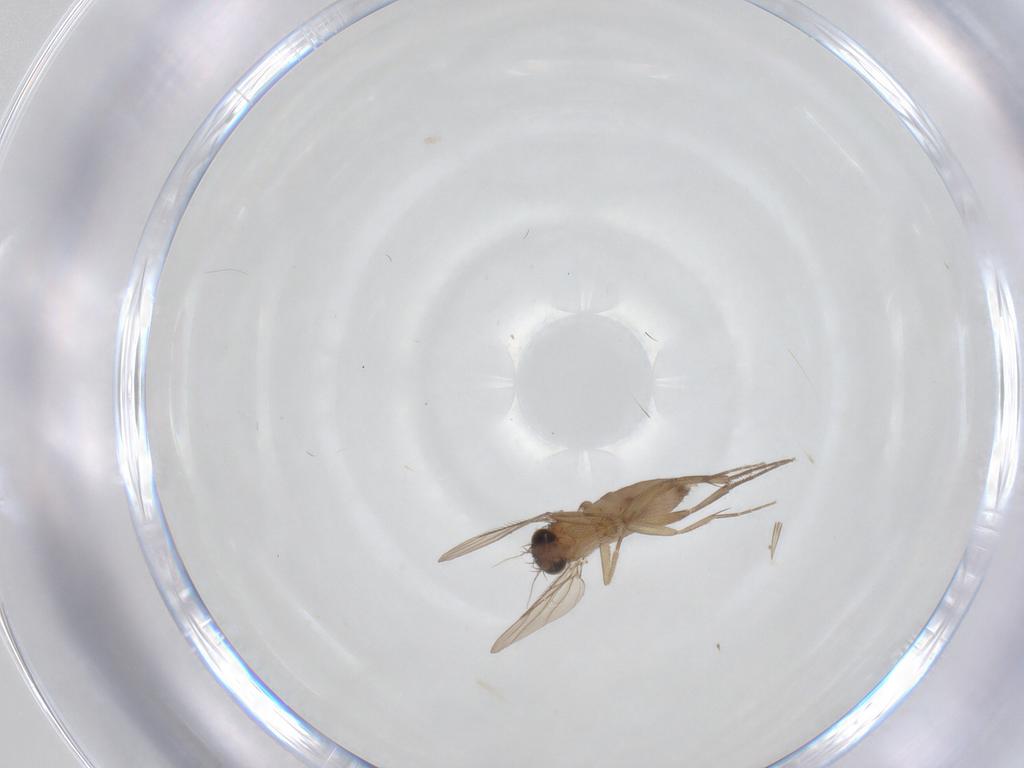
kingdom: Animalia
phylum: Arthropoda
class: Insecta
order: Diptera
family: Phoridae
